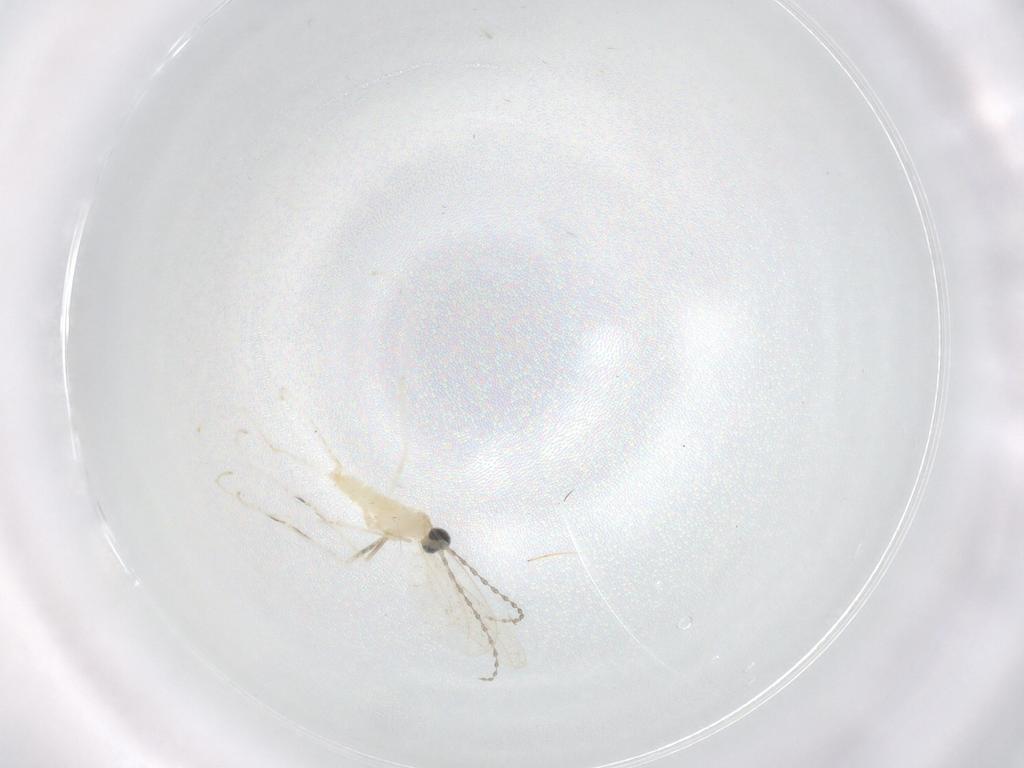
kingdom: Animalia
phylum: Arthropoda
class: Insecta
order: Diptera
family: Cecidomyiidae
